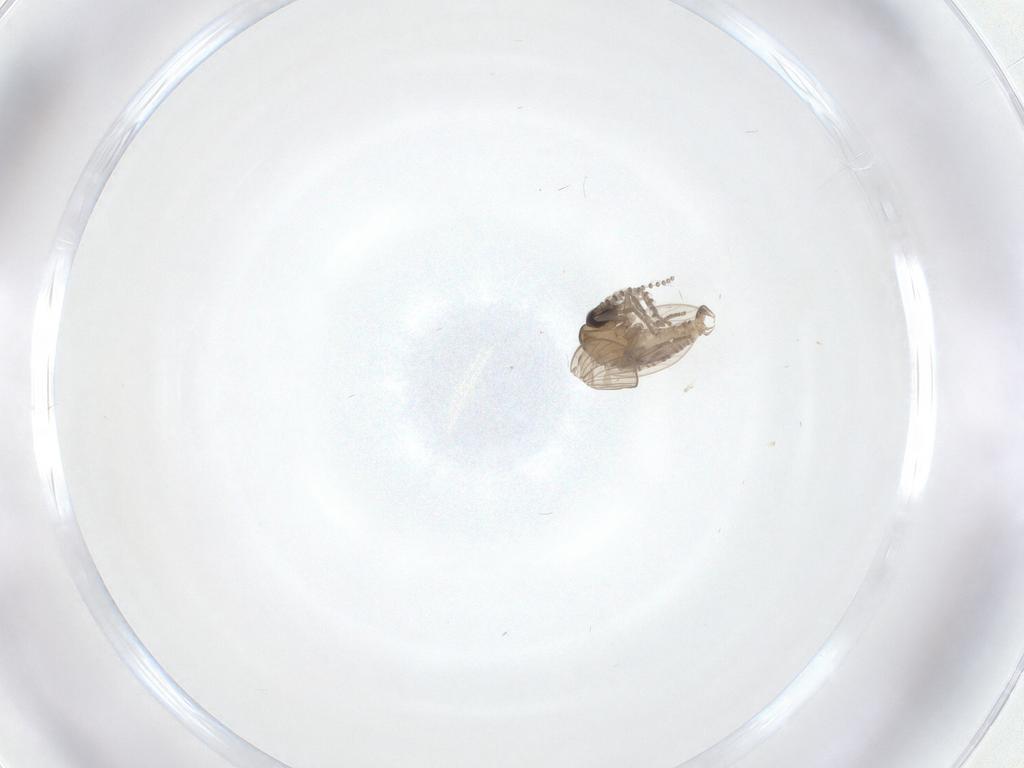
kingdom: Animalia
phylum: Arthropoda
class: Insecta
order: Diptera
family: Psychodidae
